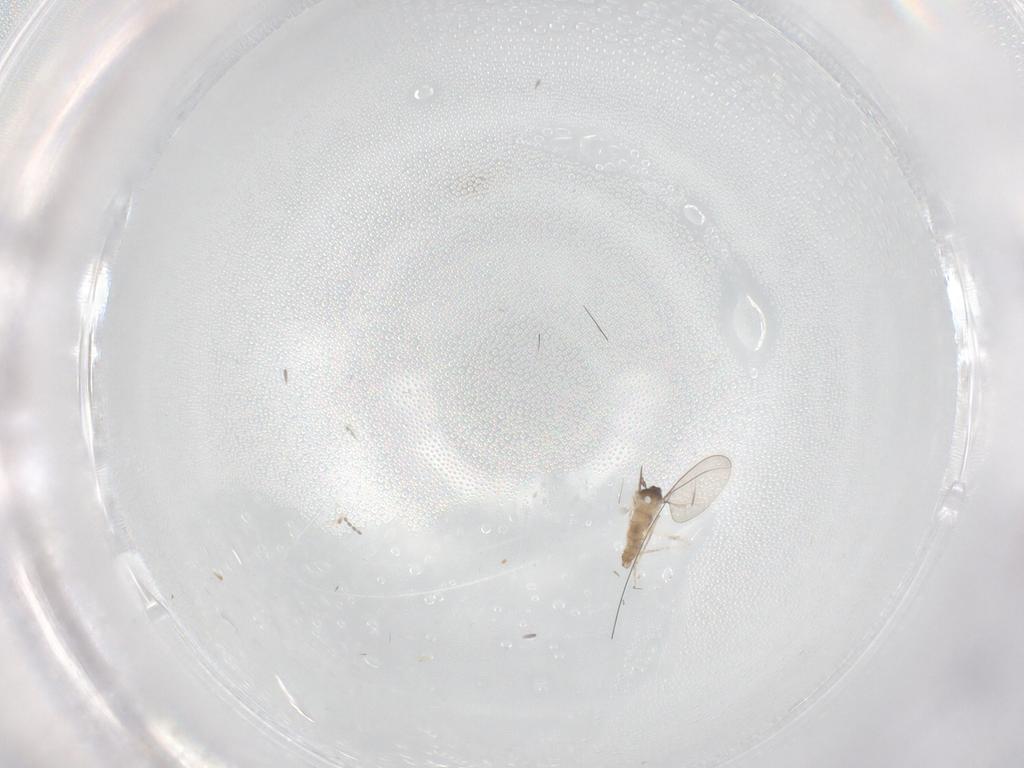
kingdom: Animalia
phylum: Arthropoda
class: Insecta
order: Diptera
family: Cecidomyiidae
